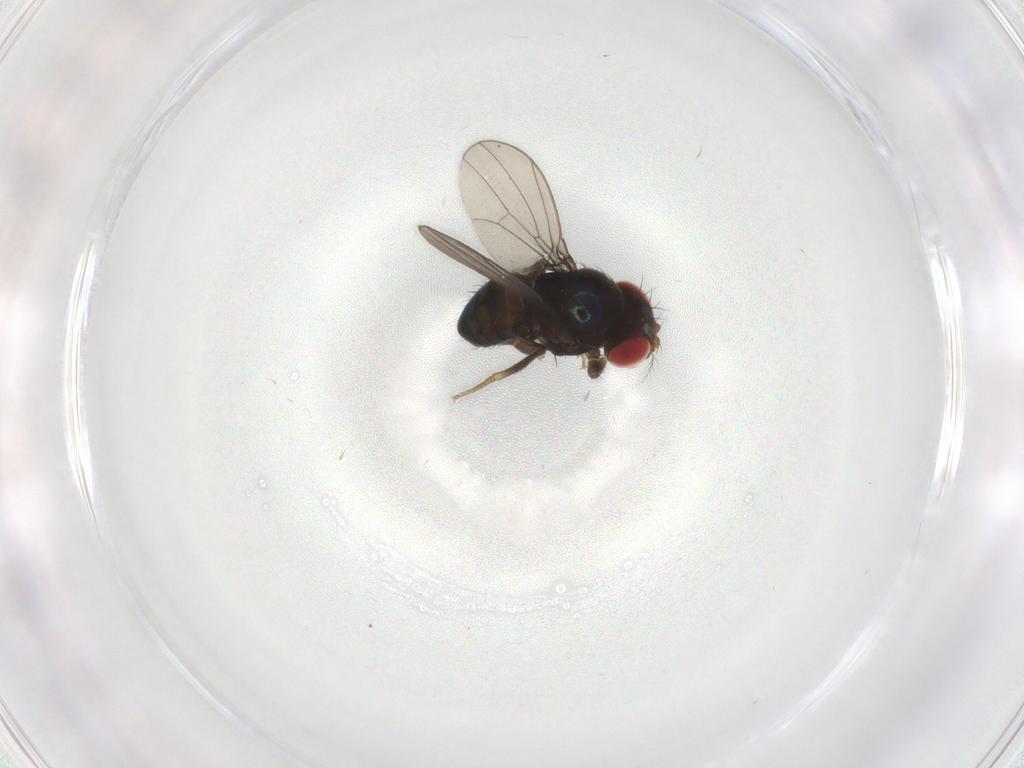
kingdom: Animalia
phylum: Arthropoda
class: Insecta
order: Diptera
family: Drosophilidae
